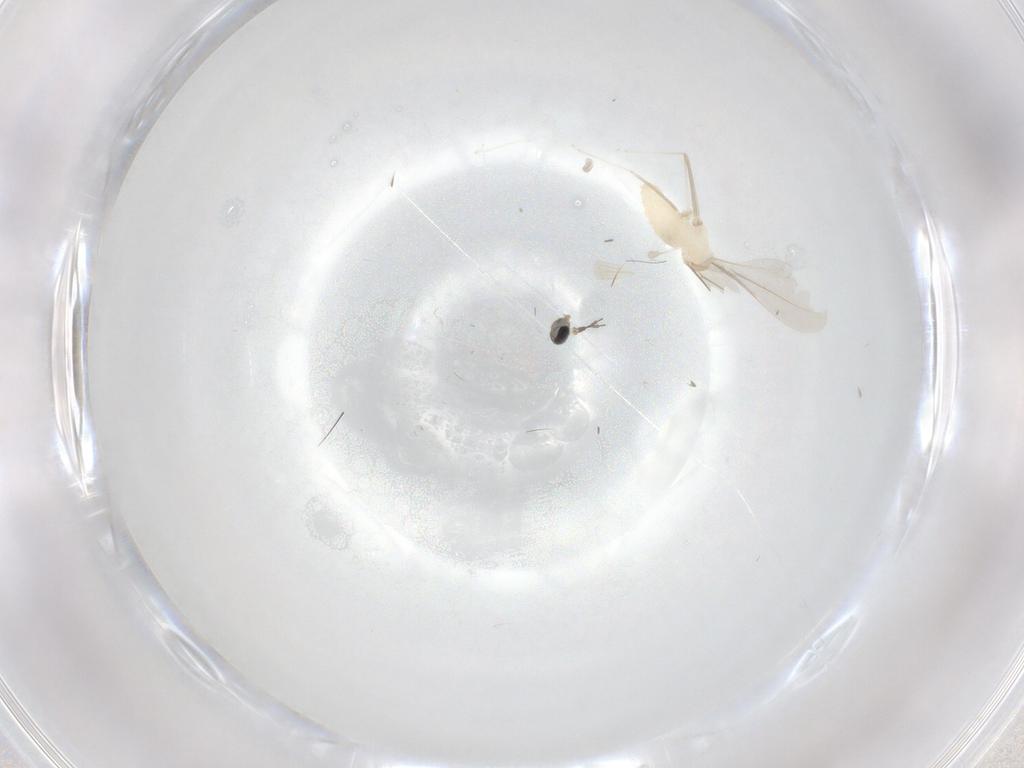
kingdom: Animalia
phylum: Arthropoda
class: Insecta
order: Diptera
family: Cecidomyiidae
